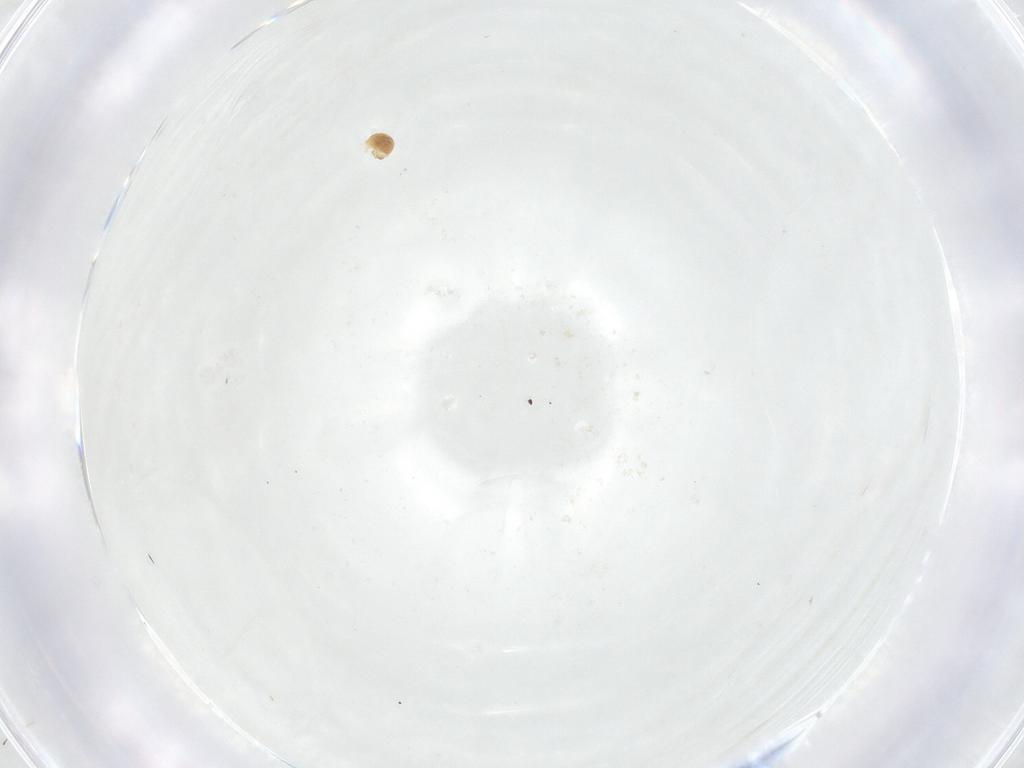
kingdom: Animalia
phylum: Arthropoda
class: Insecta
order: Diptera
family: Fergusoninidae
